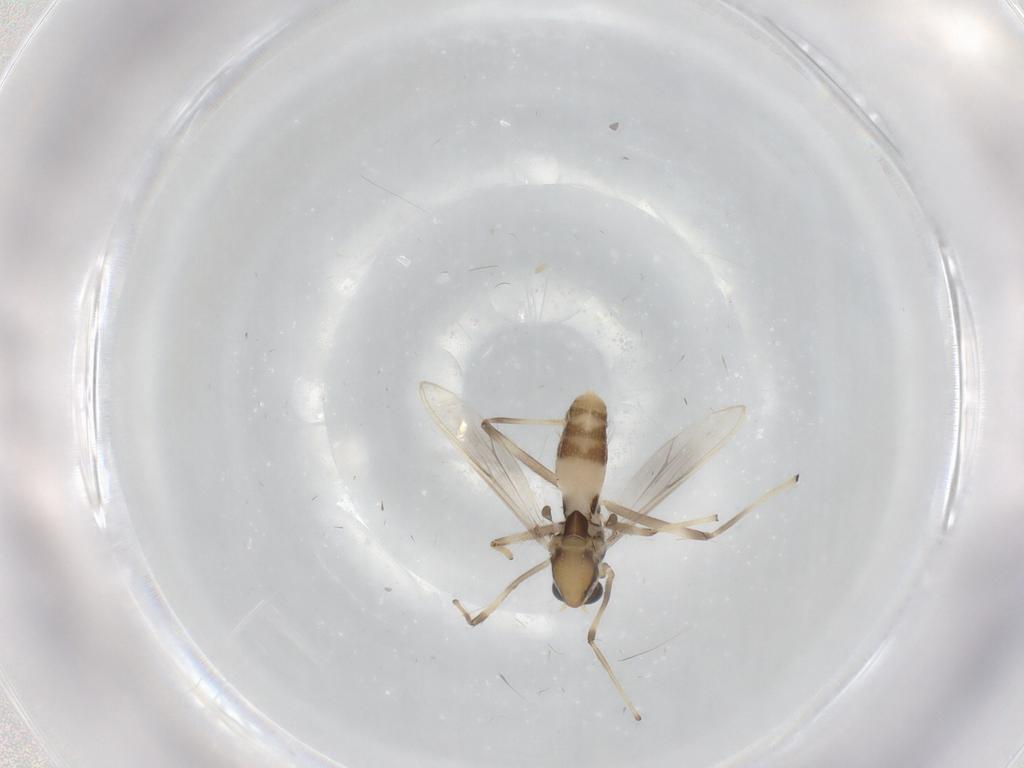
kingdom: Animalia
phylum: Arthropoda
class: Insecta
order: Diptera
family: Chironomidae
